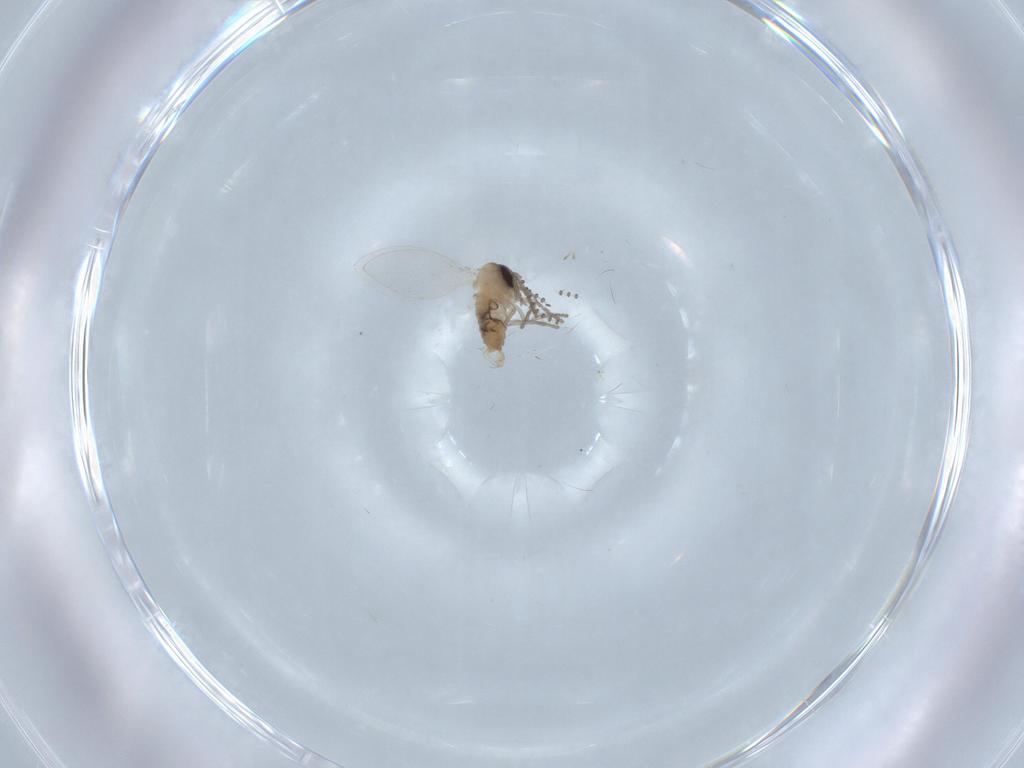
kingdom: Animalia
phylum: Arthropoda
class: Insecta
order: Diptera
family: Psychodidae
